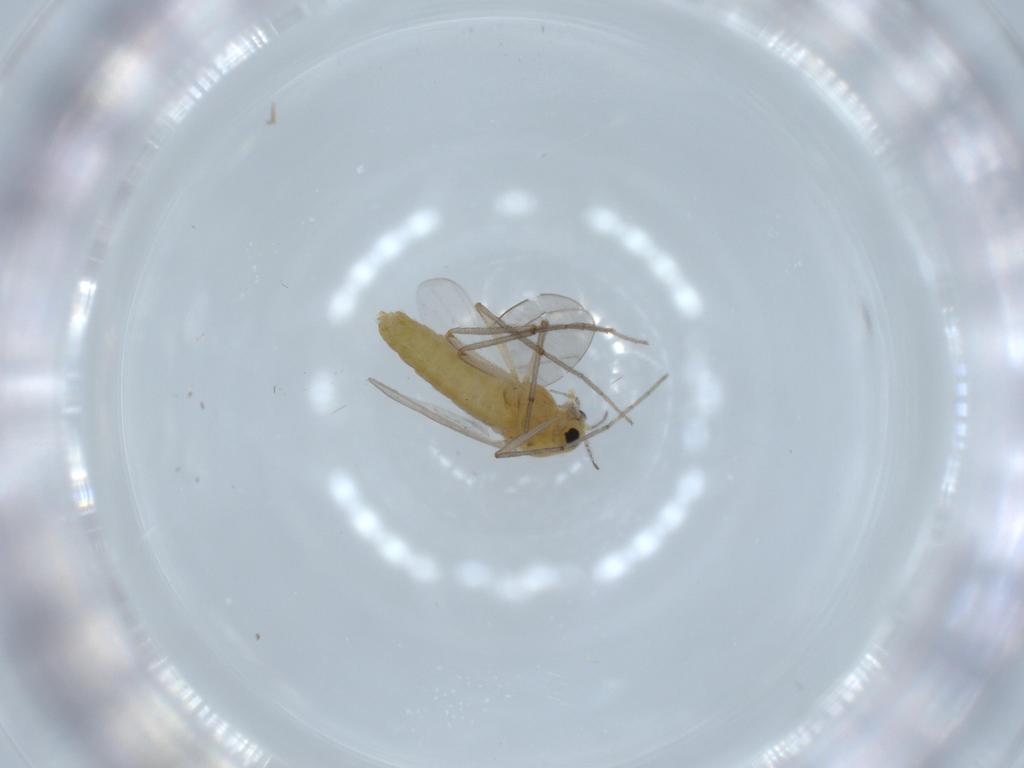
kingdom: Animalia
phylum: Arthropoda
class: Insecta
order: Diptera
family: Chironomidae
